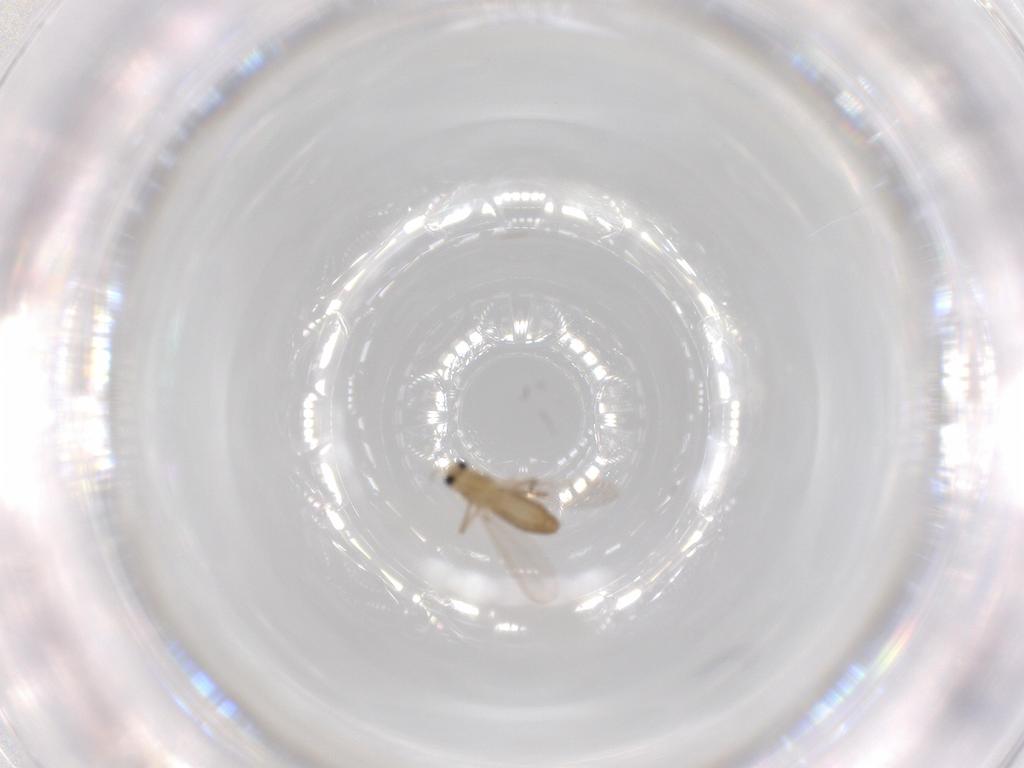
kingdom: Animalia
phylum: Arthropoda
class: Insecta
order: Diptera
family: Chironomidae
